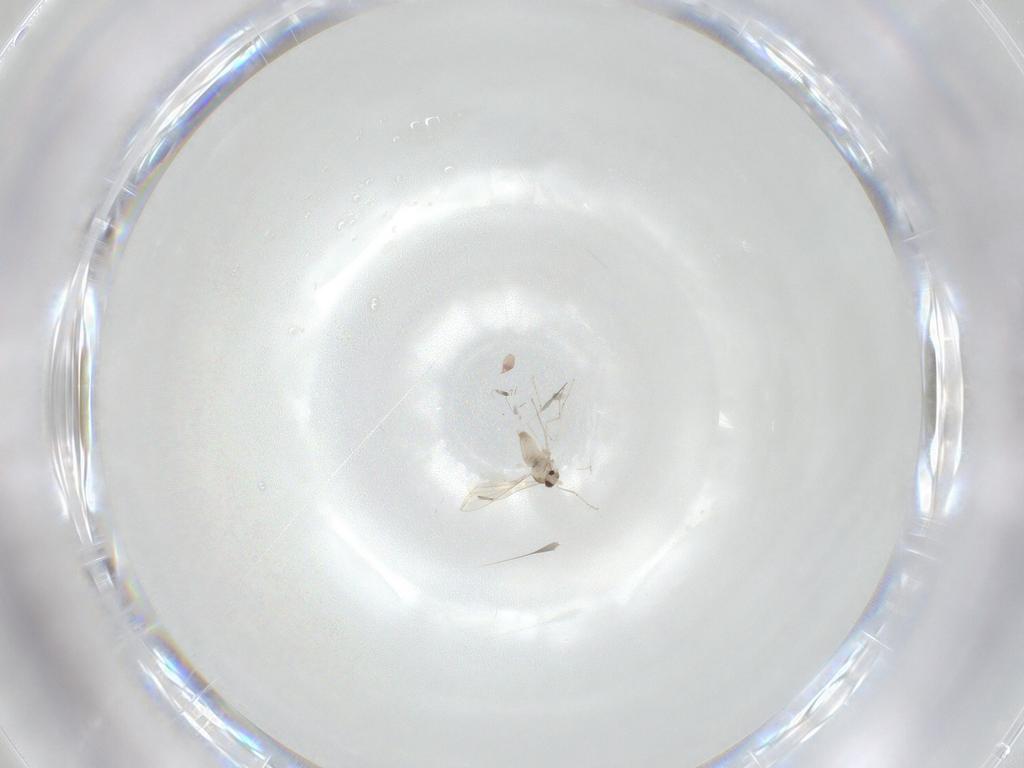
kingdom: Animalia
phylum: Arthropoda
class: Insecta
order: Diptera
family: Cecidomyiidae
